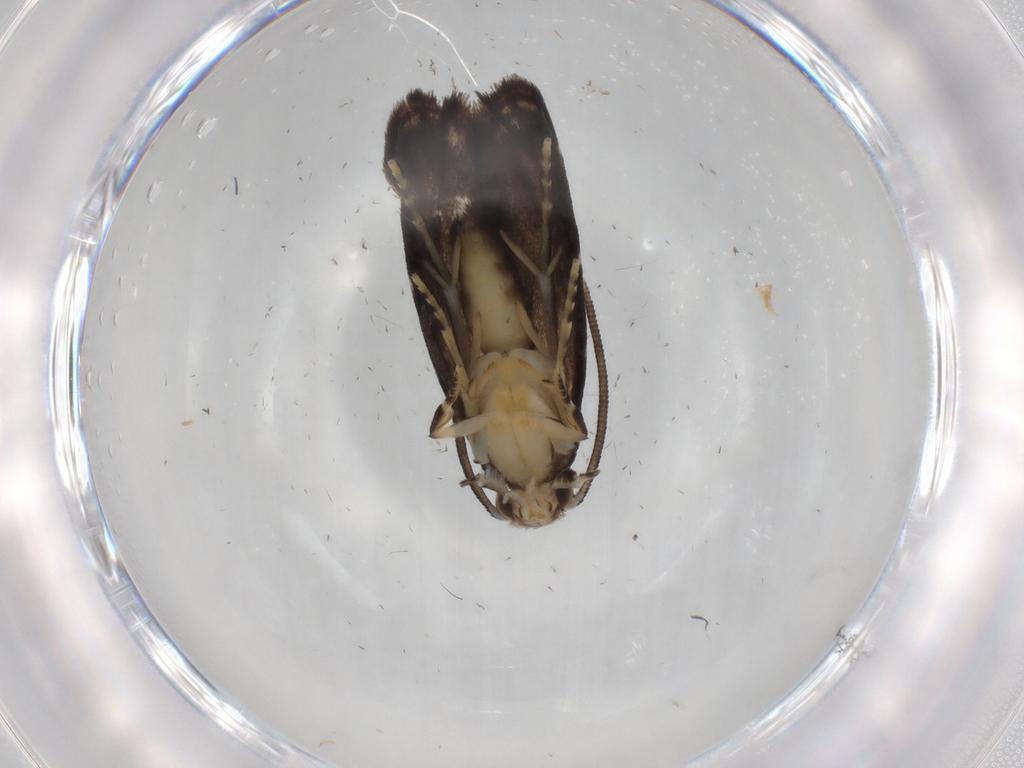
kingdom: Animalia
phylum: Arthropoda
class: Insecta
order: Lepidoptera
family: Dryadaulidae
